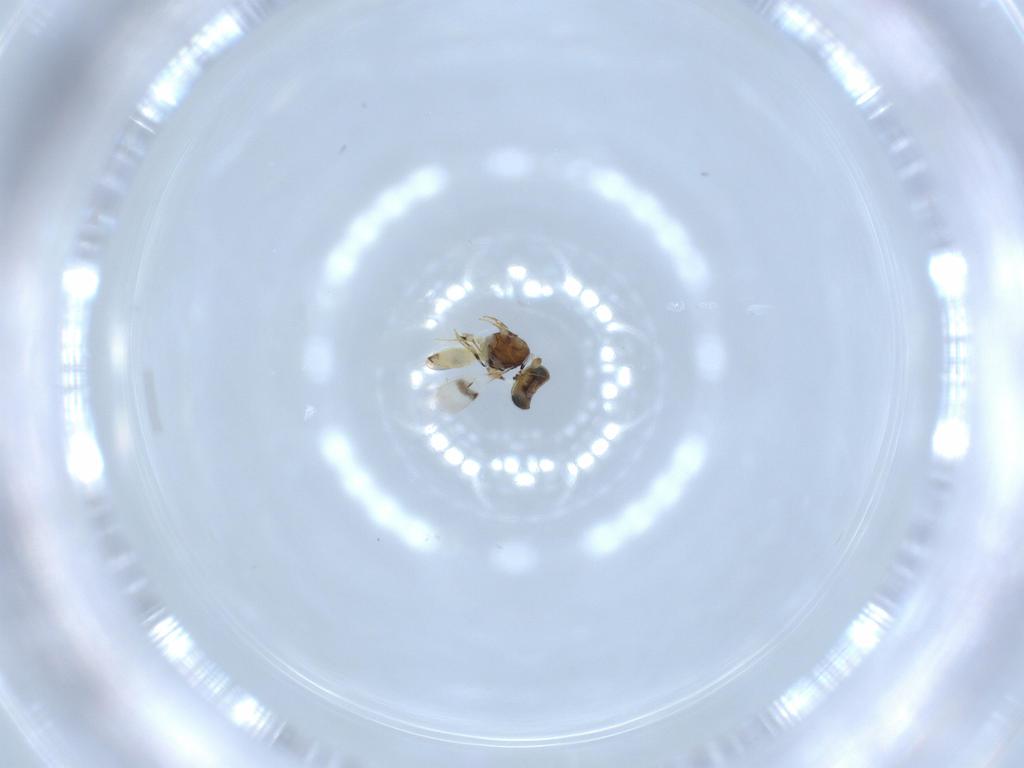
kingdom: Animalia
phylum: Arthropoda
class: Insecta
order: Hymenoptera
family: Scelionidae
